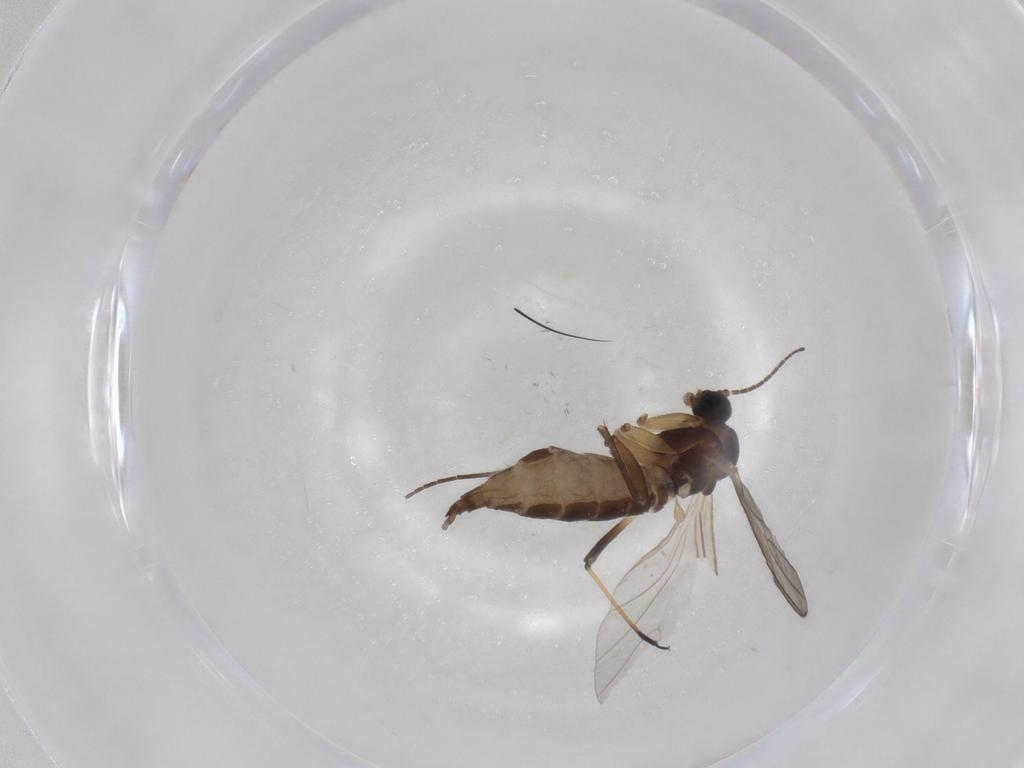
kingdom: Animalia
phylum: Arthropoda
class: Insecta
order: Diptera
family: Sciaridae
